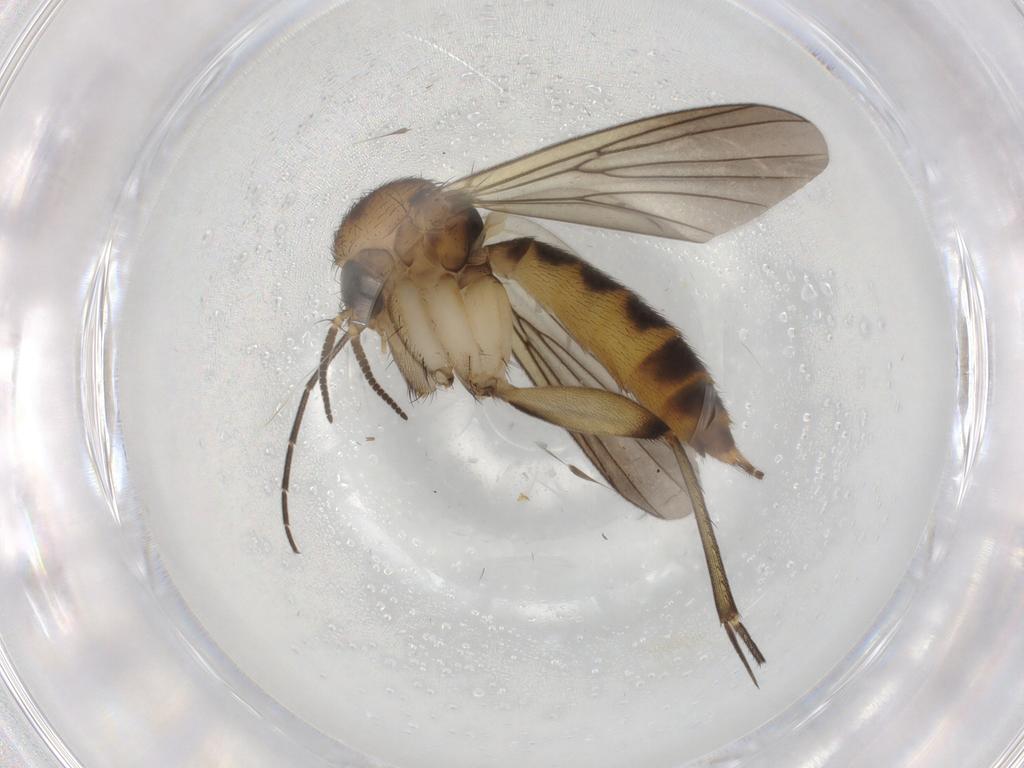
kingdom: Animalia
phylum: Arthropoda
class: Insecta
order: Diptera
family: Mycetophilidae
